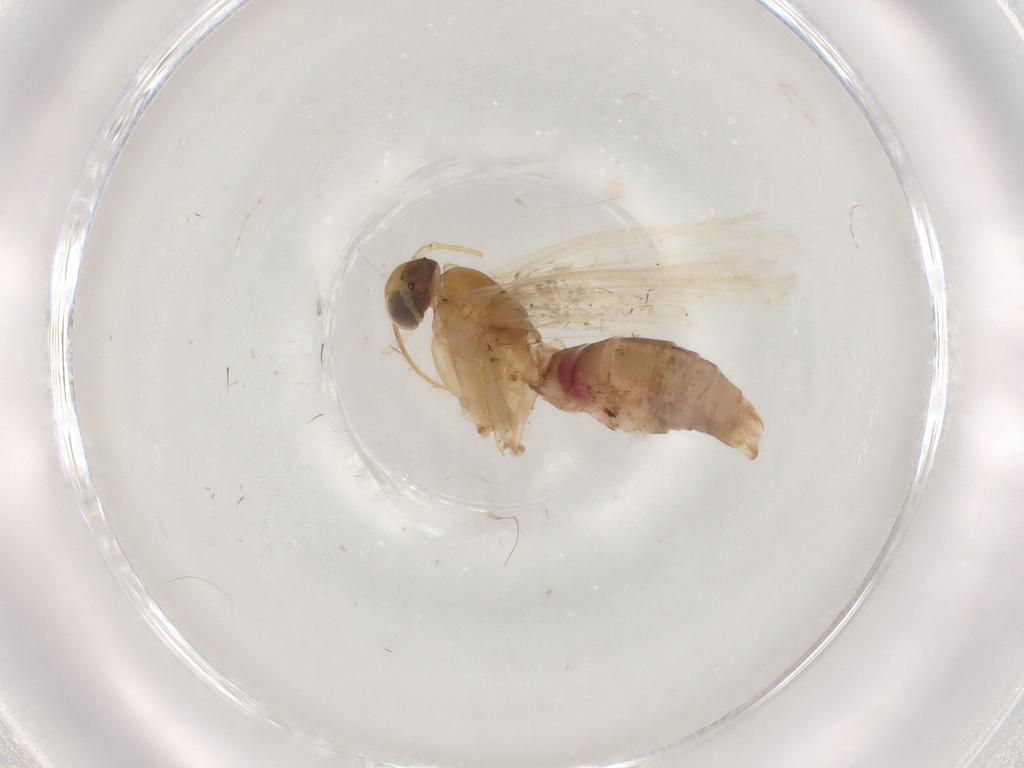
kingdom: Animalia
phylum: Arthropoda
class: Insecta
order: Lepidoptera
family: Erebidae
